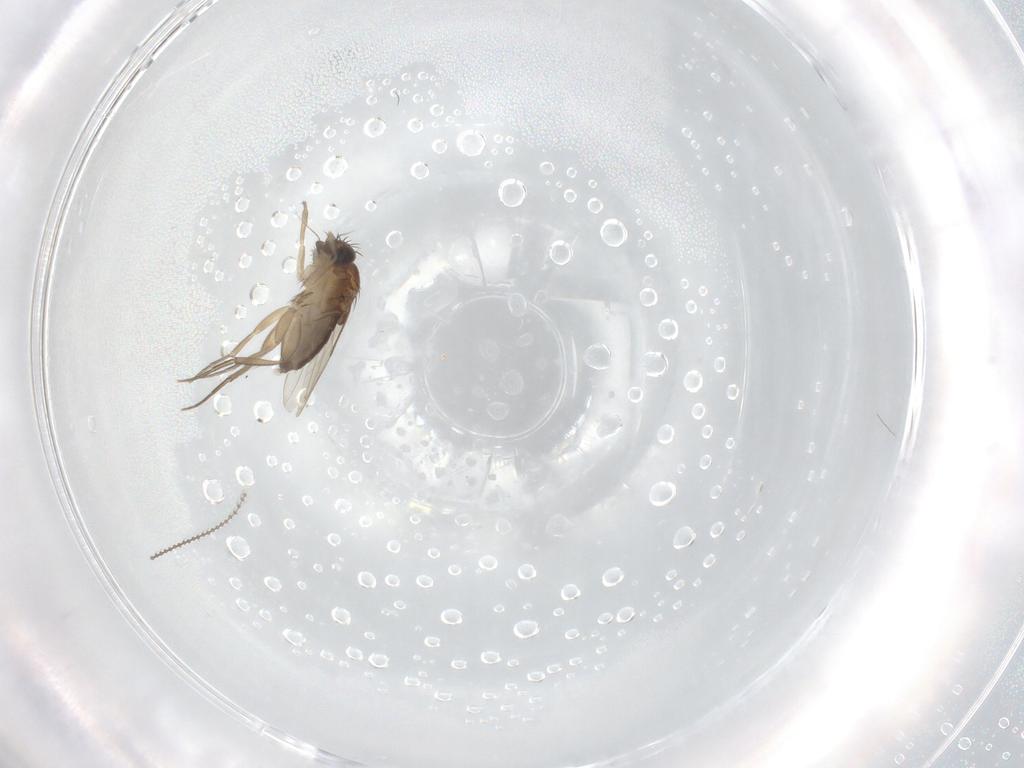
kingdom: Animalia
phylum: Arthropoda
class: Insecta
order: Diptera
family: Phoridae
